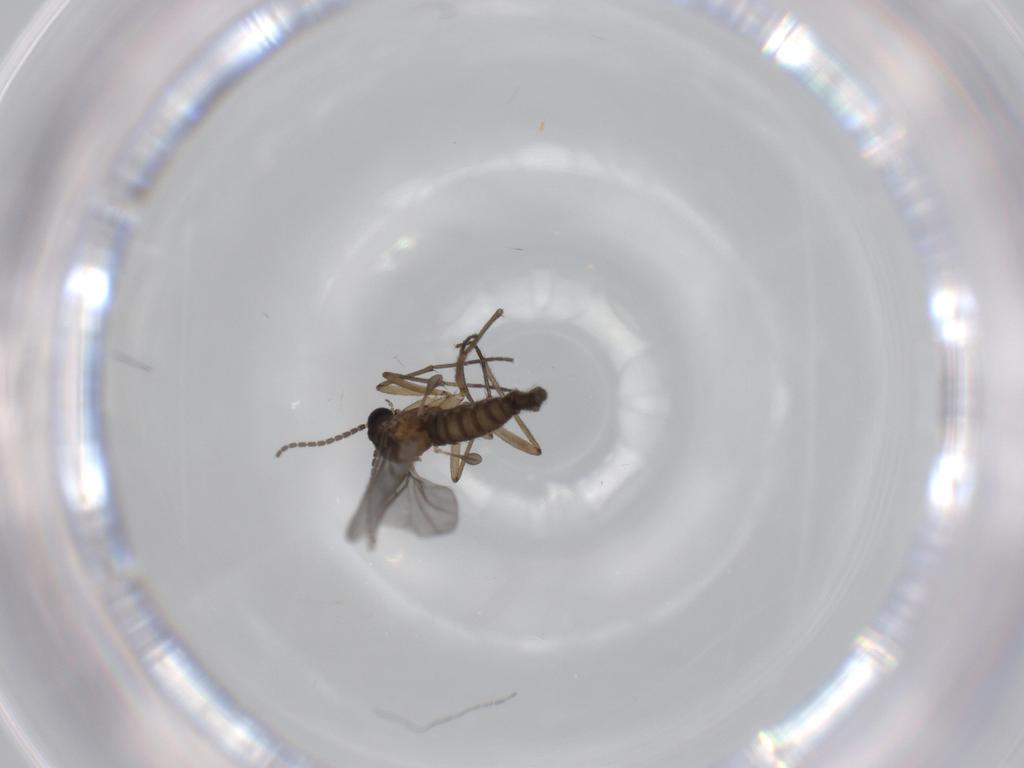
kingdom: Animalia
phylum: Arthropoda
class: Insecta
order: Diptera
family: Sciaridae
